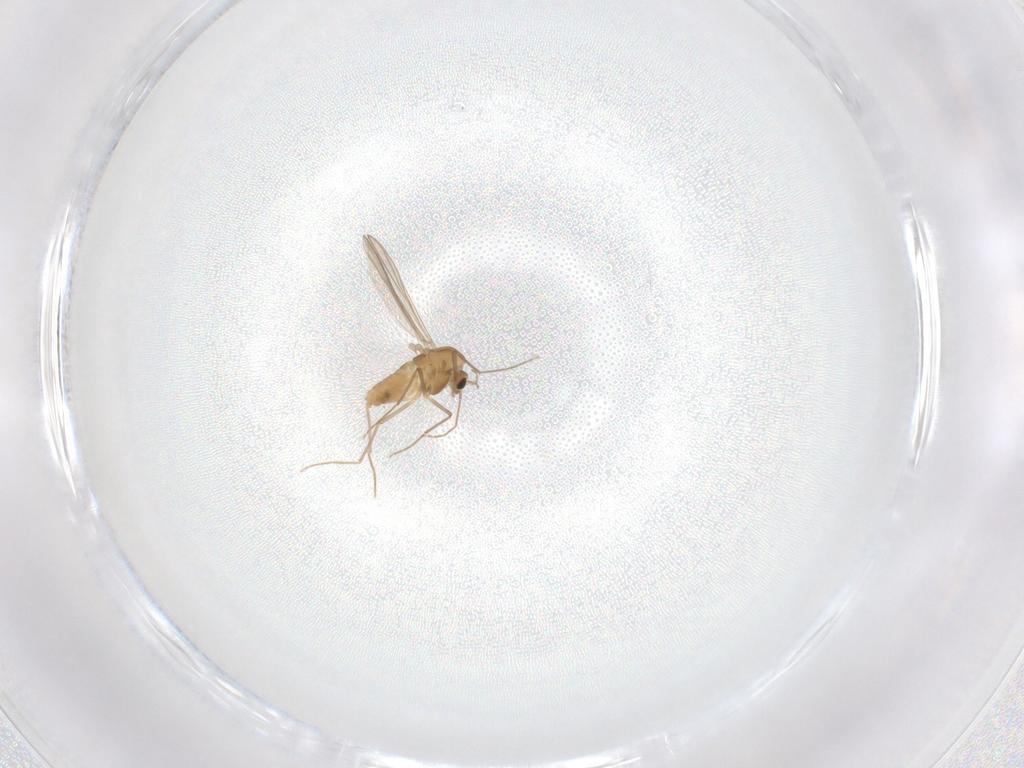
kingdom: Animalia
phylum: Arthropoda
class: Insecta
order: Diptera
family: Chironomidae
